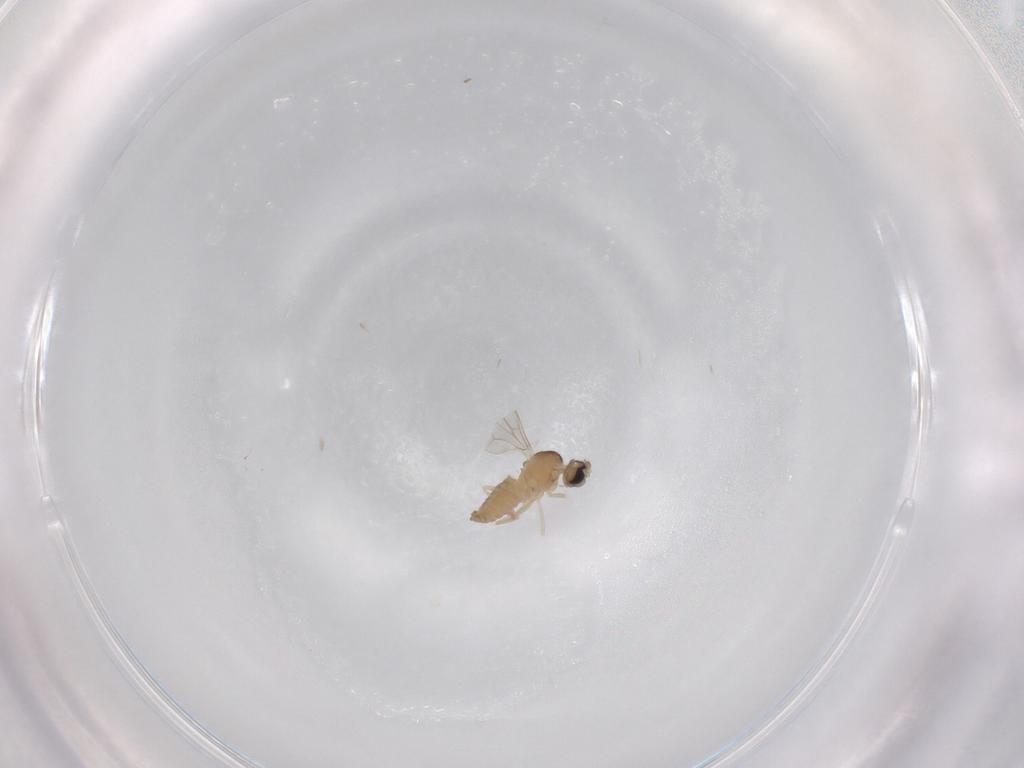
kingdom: Animalia
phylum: Arthropoda
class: Insecta
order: Diptera
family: Cecidomyiidae
